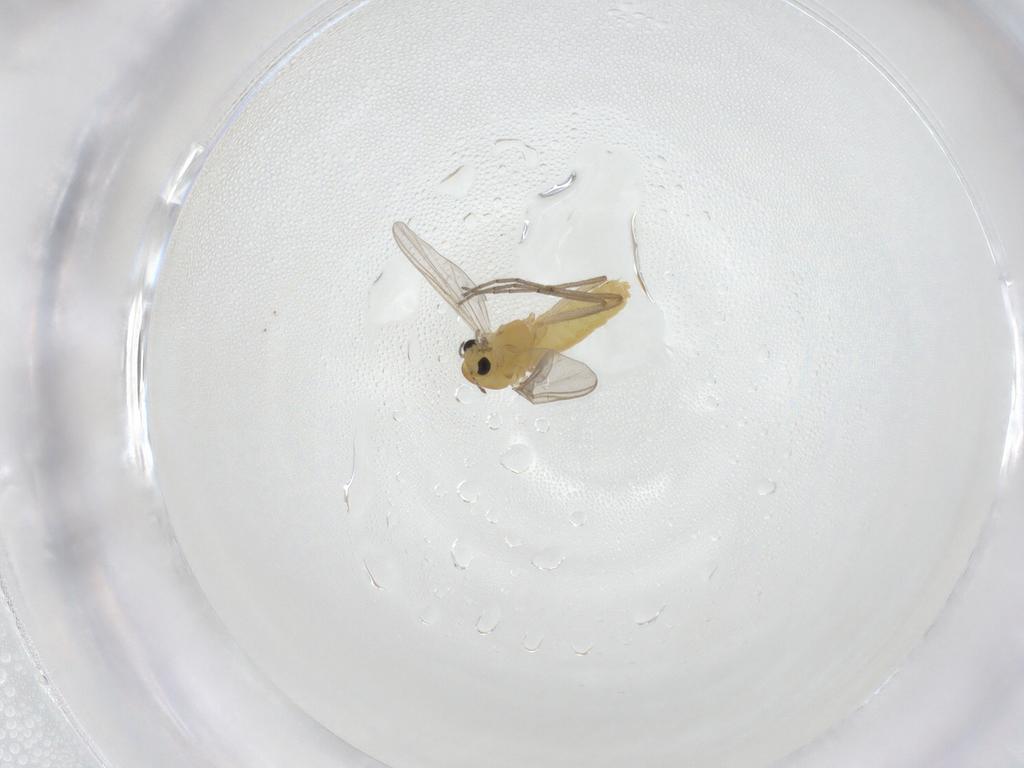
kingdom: Animalia
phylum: Arthropoda
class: Insecta
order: Diptera
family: Chironomidae
